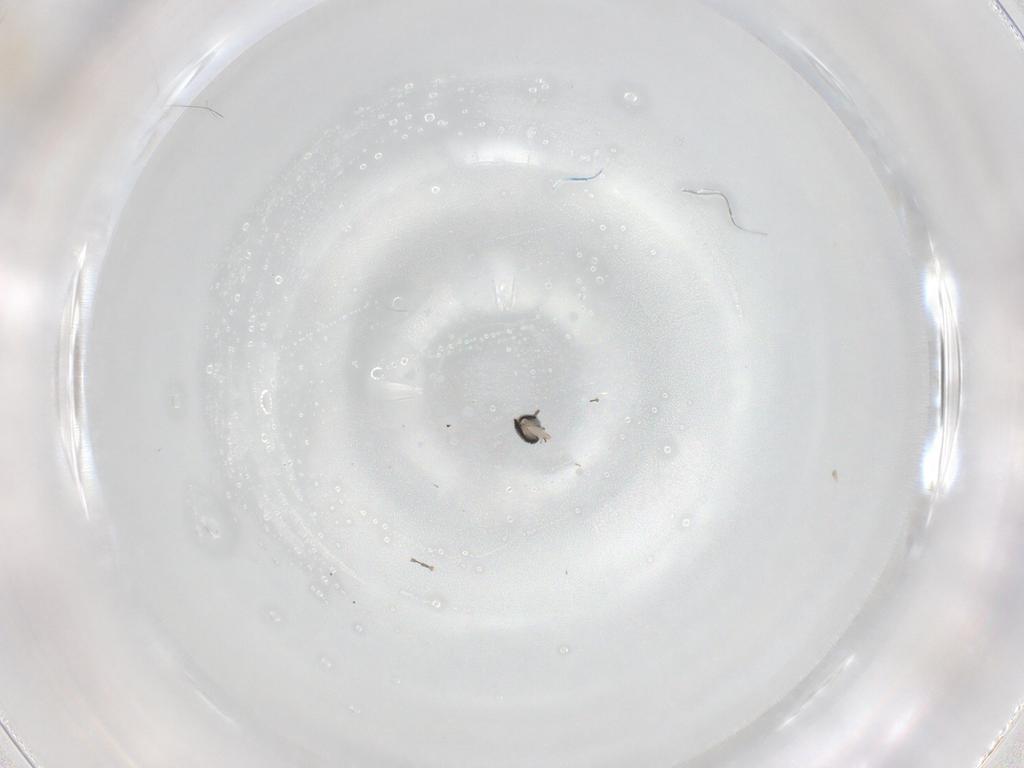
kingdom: Animalia
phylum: Arthropoda
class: Insecta
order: Diptera
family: Cecidomyiidae
